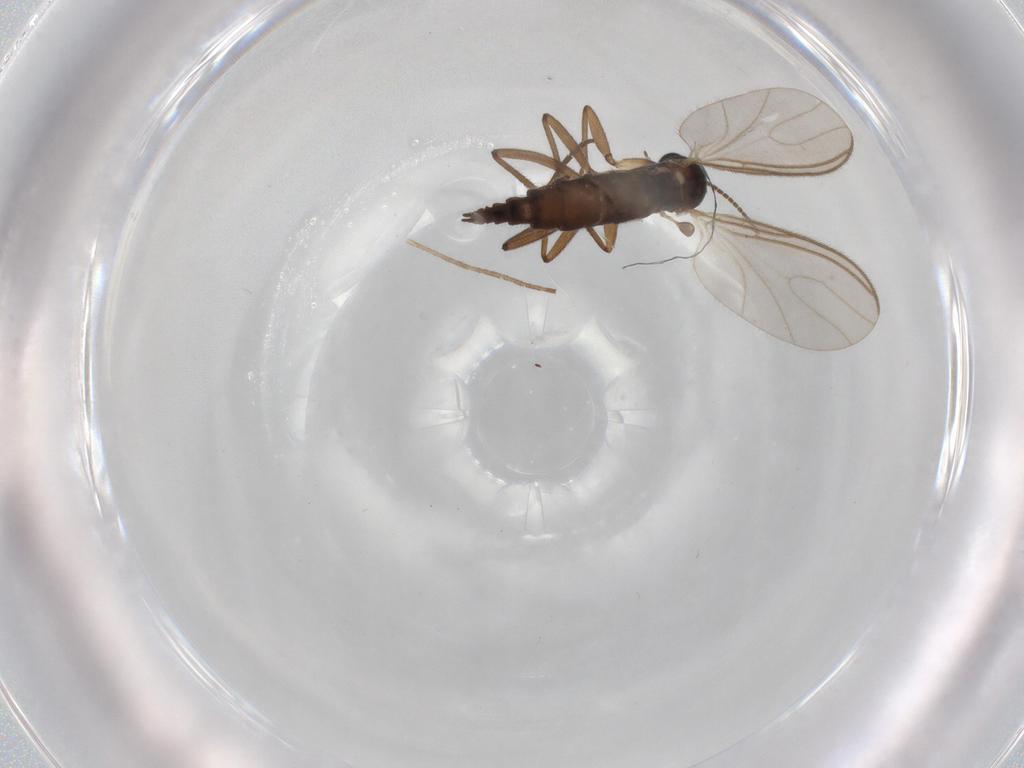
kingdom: Animalia
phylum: Arthropoda
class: Insecta
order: Diptera
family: Sciaridae
